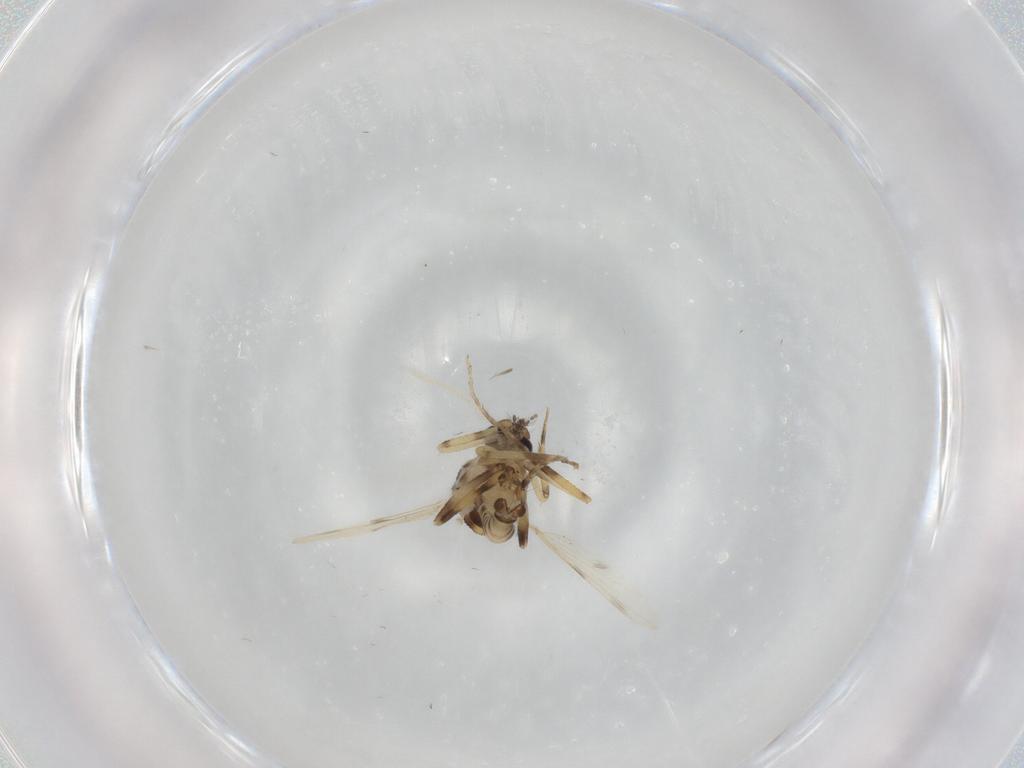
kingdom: Animalia
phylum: Arthropoda
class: Insecta
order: Diptera
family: Ceratopogonidae
